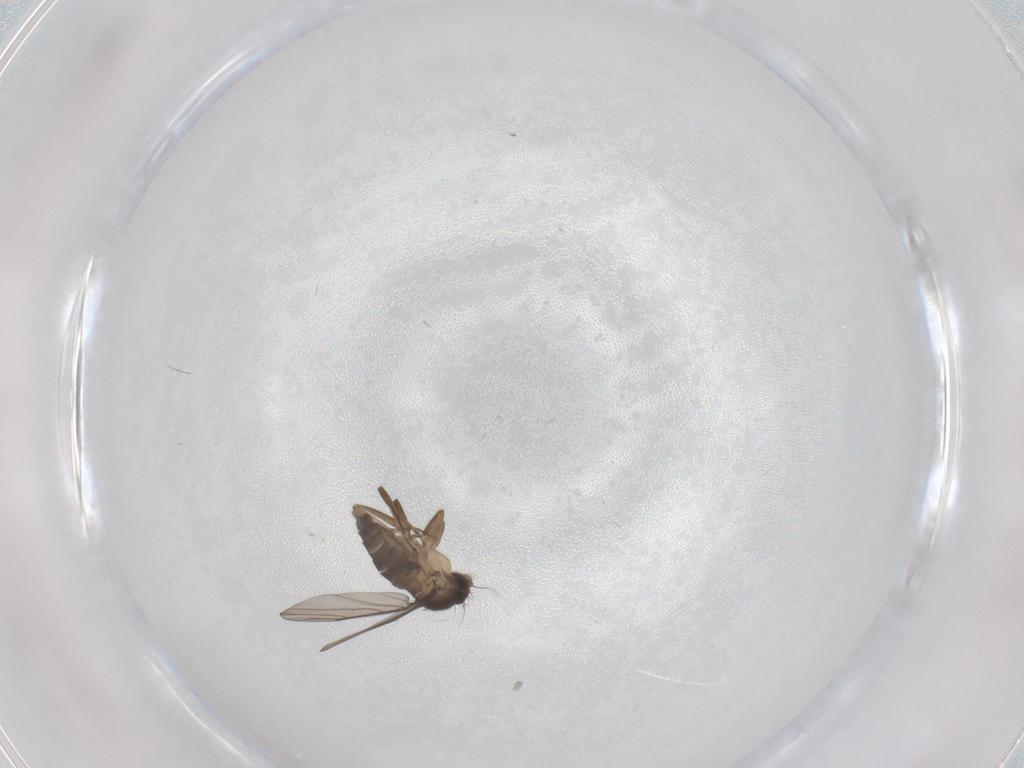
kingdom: Animalia
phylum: Arthropoda
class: Insecta
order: Diptera
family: Phoridae
